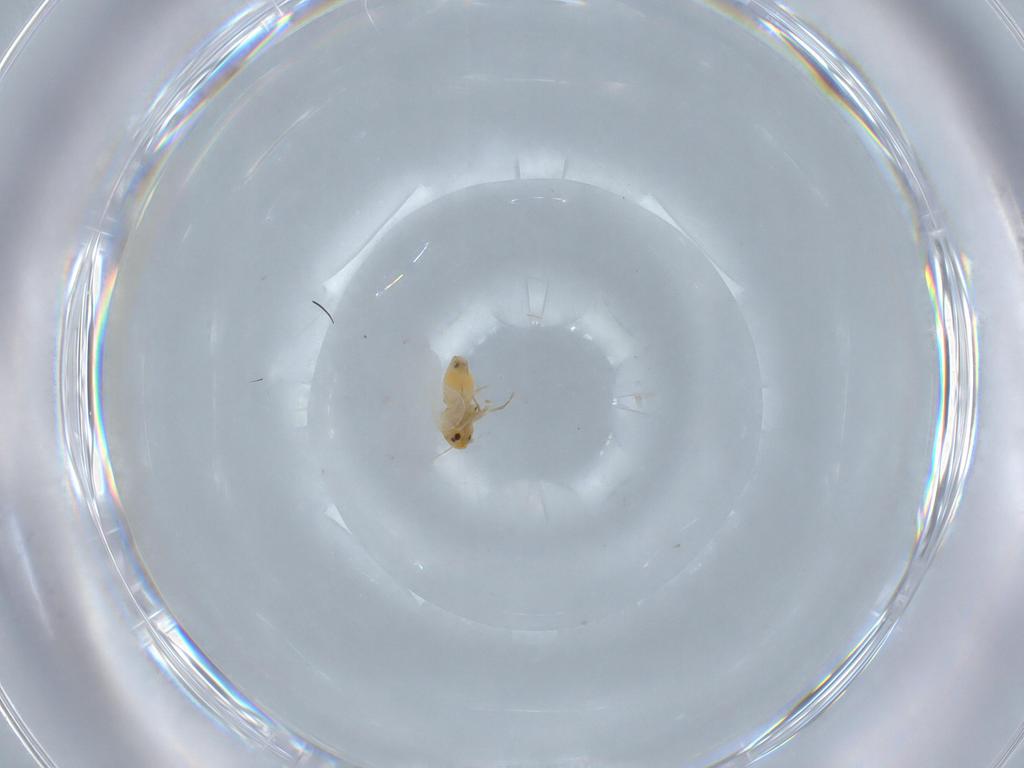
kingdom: Animalia
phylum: Arthropoda
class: Insecta
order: Hemiptera
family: Aleyrodidae
